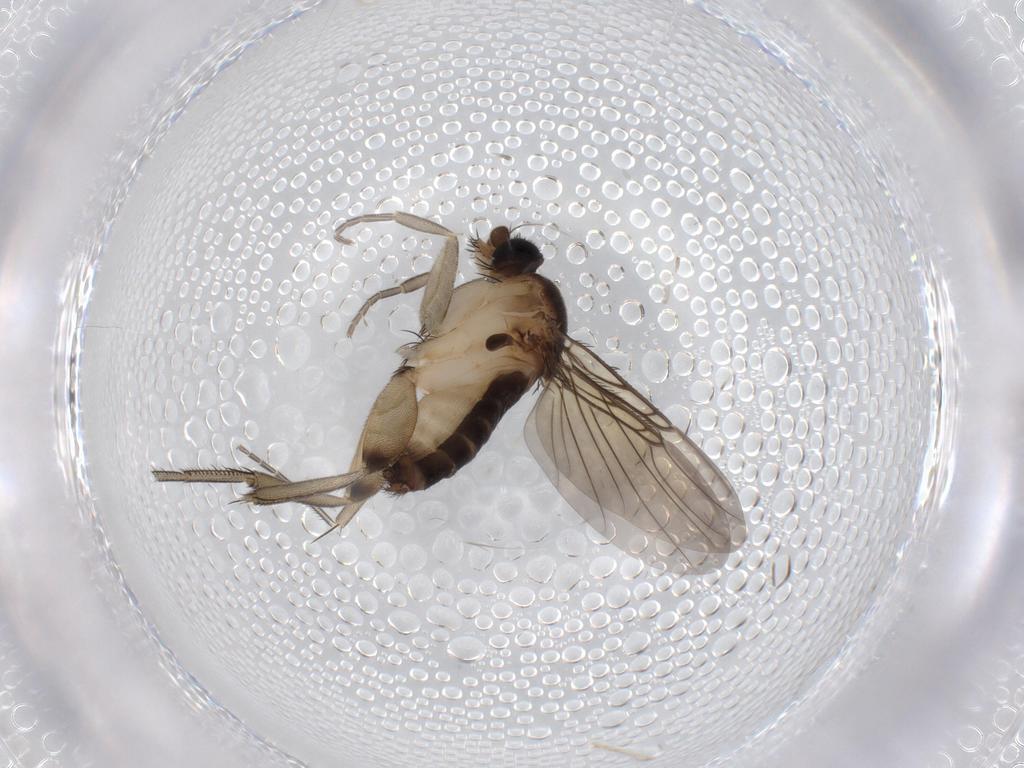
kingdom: Animalia
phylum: Arthropoda
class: Insecta
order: Diptera
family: Phoridae
